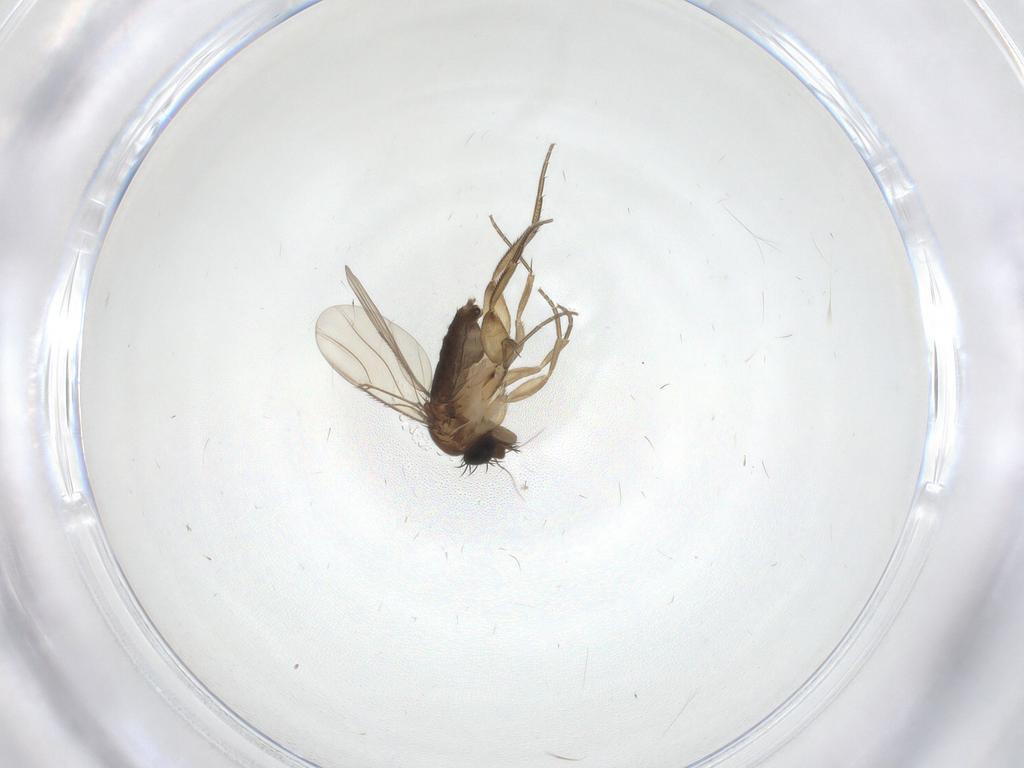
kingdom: Animalia
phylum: Arthropoda
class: Insecta
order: Diptera
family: Phoridae
